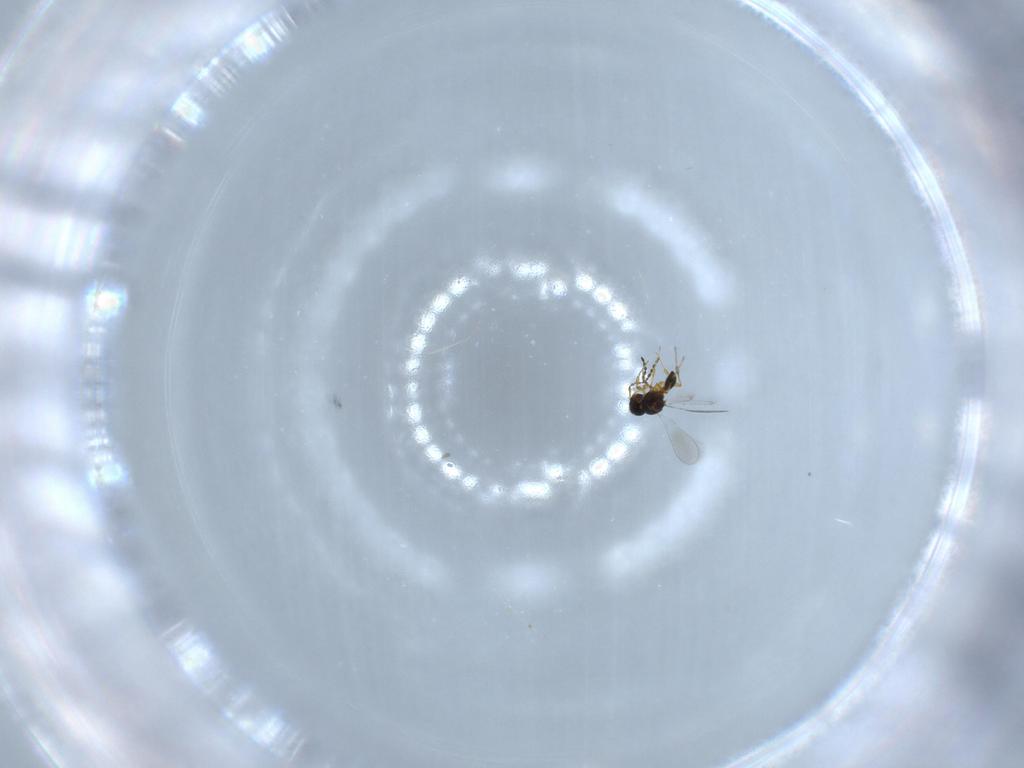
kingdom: Animalia
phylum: Arthropoda
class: Insecta
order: Hymenoptera
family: Platygastridae
